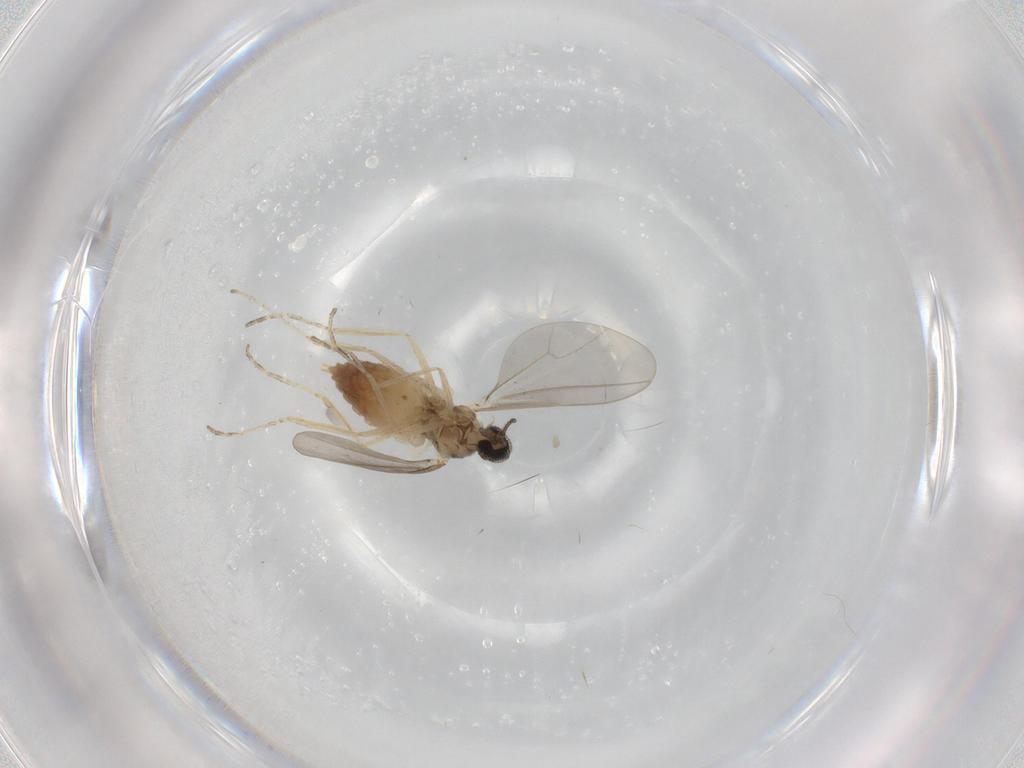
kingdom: Animalia
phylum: Arthropoda
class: Insecta
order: Diptera
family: Cecidomyiidae
